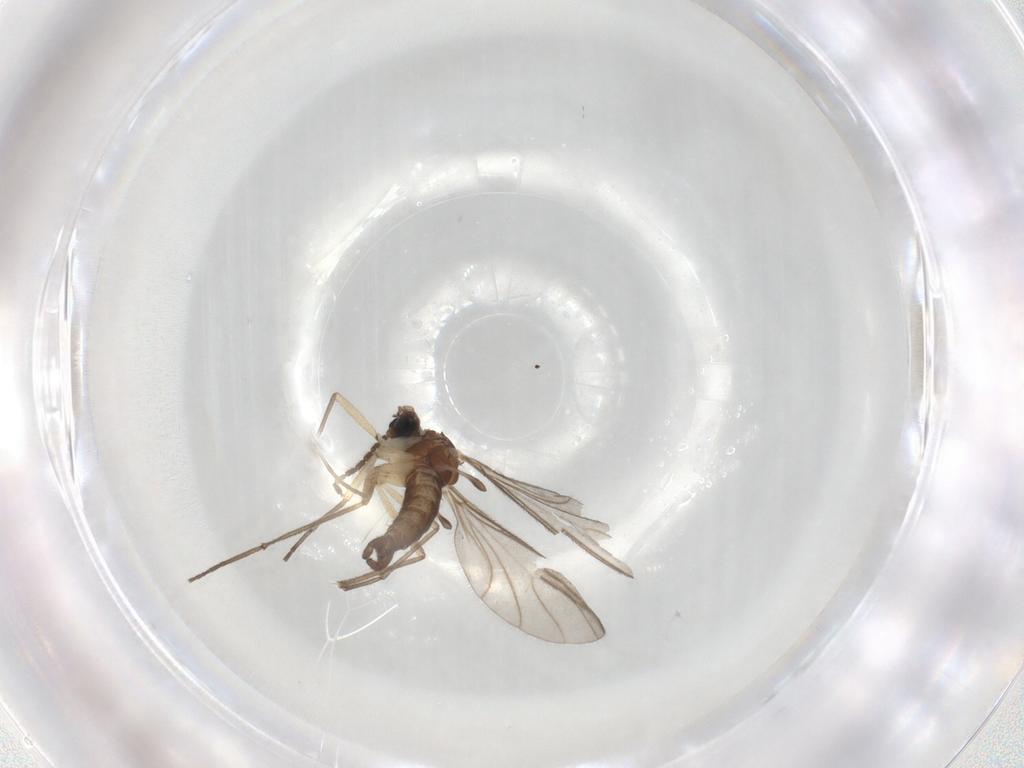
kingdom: Animalia
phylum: Arthropoda
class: Insecta
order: Diptera
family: Sciaridae
